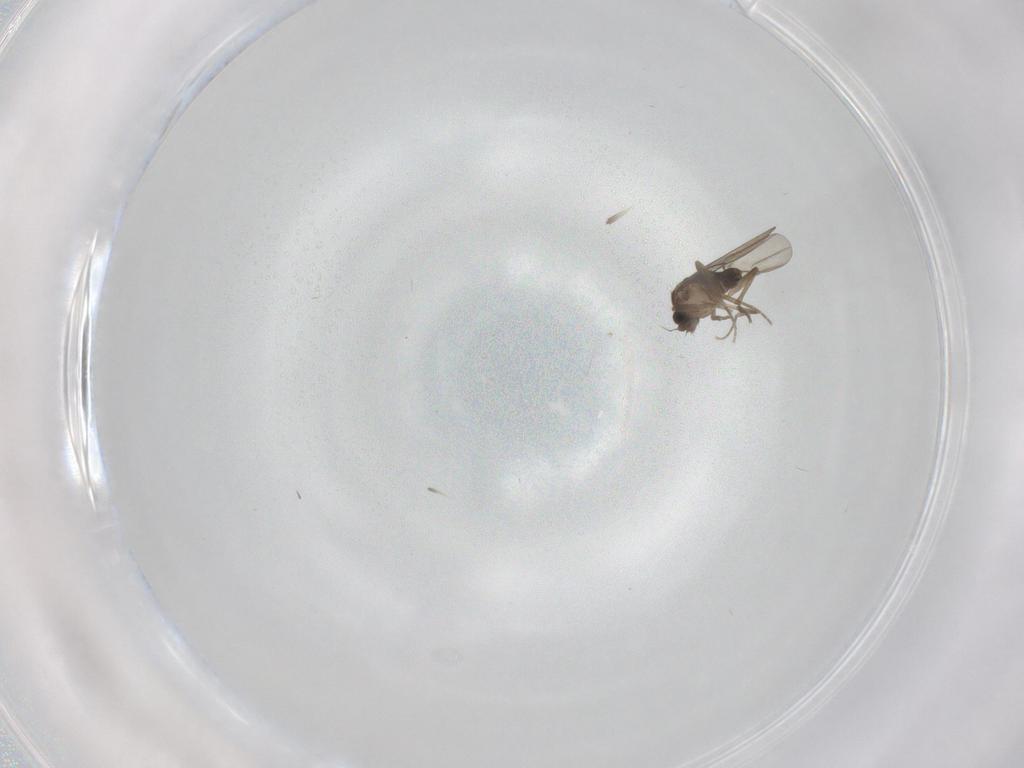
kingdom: Animalia
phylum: Arthropoda
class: Insecta
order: Diptera
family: Phoridae
